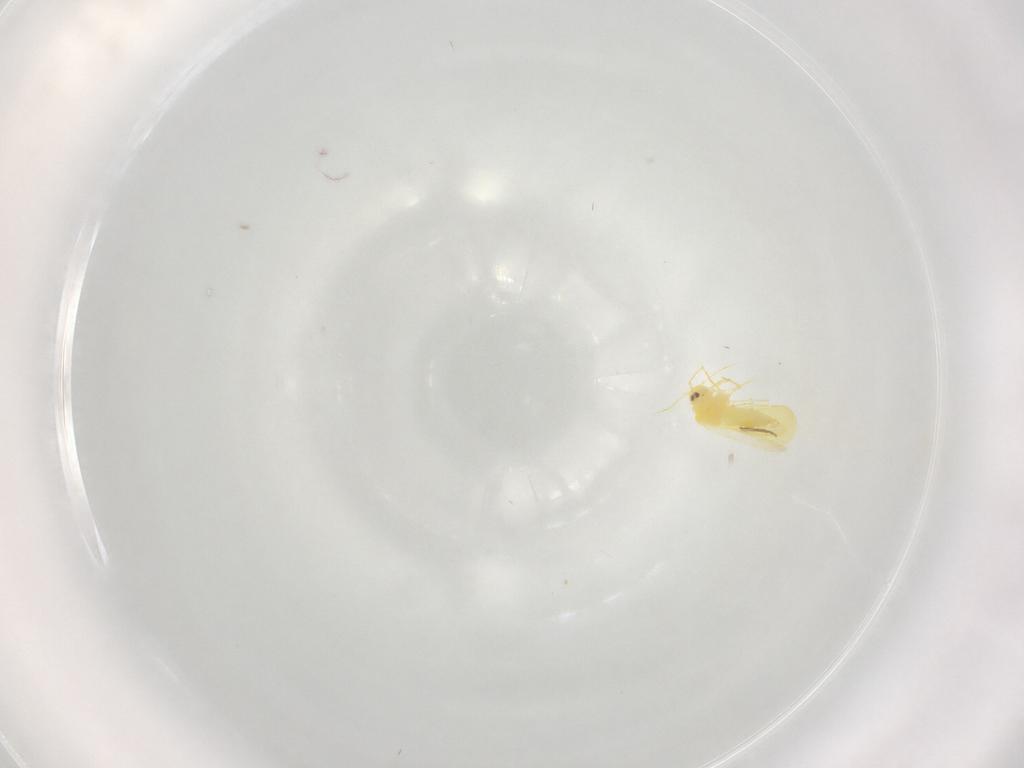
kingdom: Animalia
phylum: Arthropoda
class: Insecta
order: Hemiptera
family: Aleyrodidae
